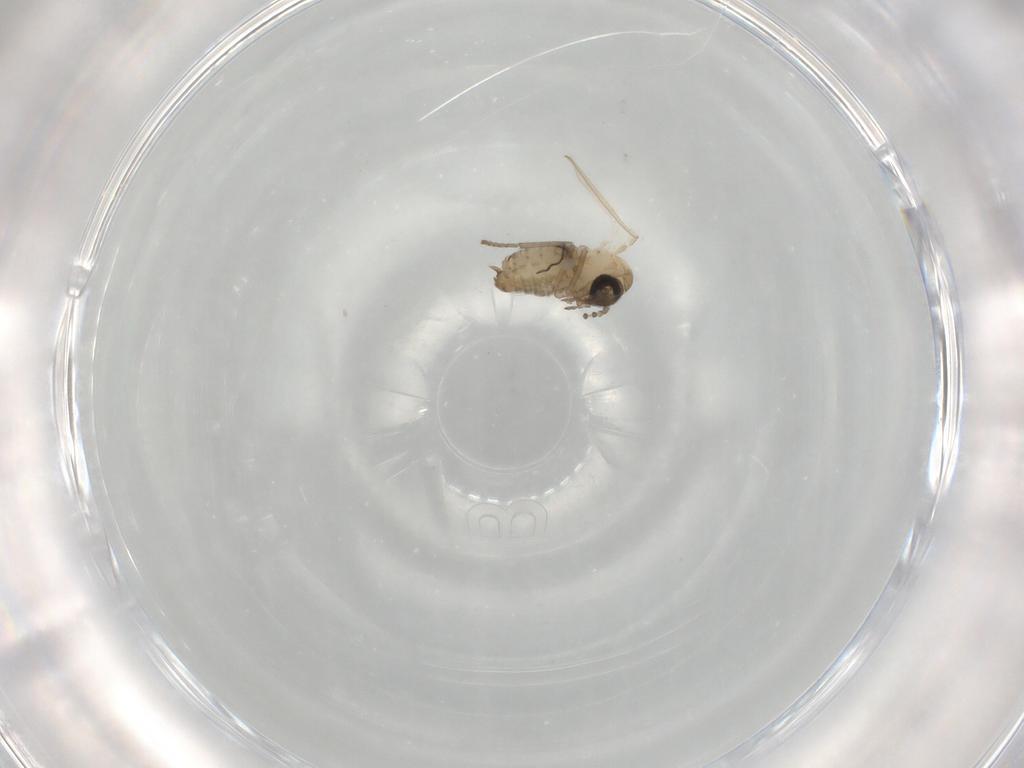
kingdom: Animalia
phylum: Arthropoda
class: Insecta
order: Diptera
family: Psychodidae
